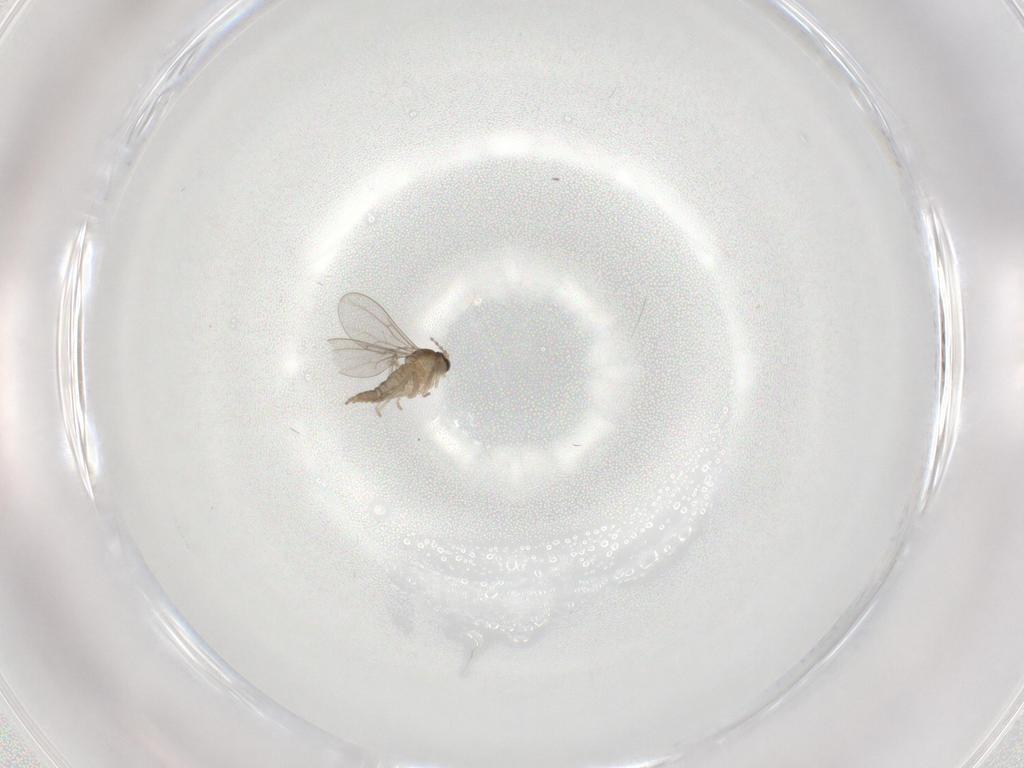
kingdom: Animalia
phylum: Arthropoda
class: Insecta
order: Diptera
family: Cecidomyiidae
